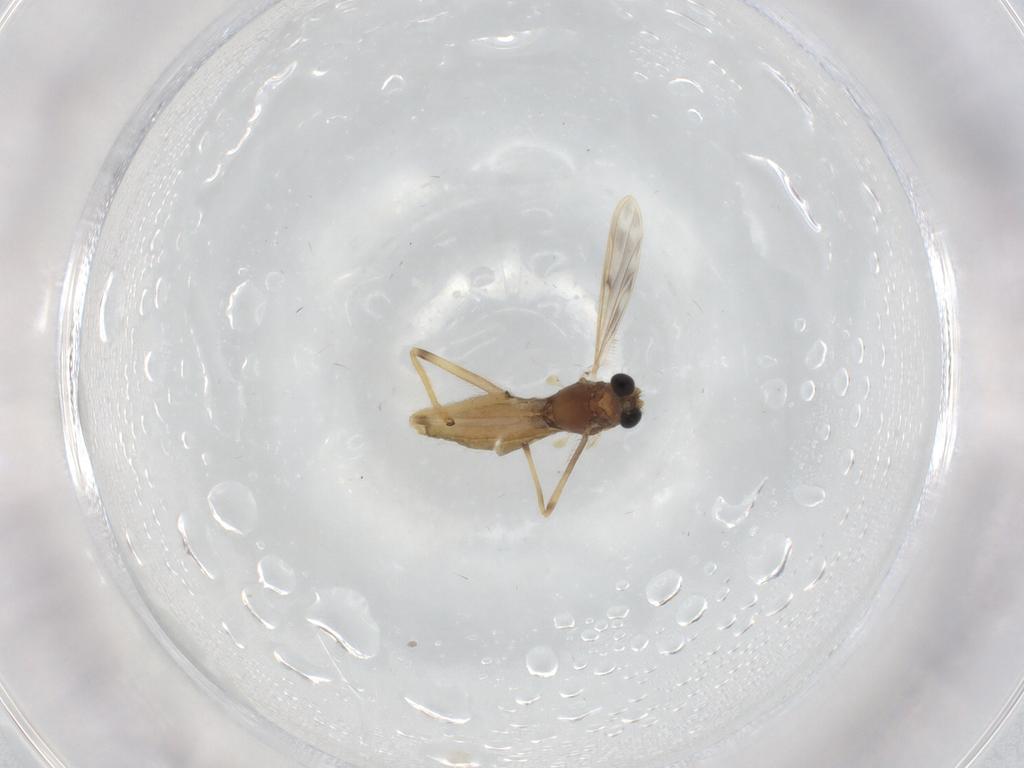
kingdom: Animalia
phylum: Arthropoda
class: Insecta
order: Diptera
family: Chironomidae
